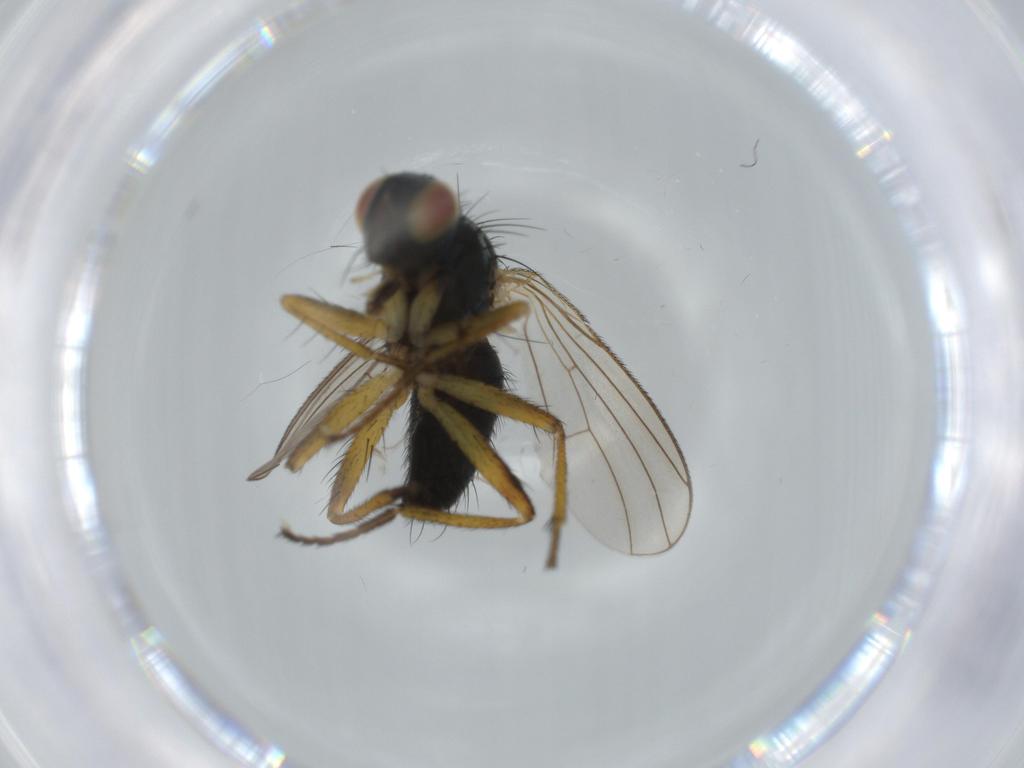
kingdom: Animalia
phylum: Arthropoda
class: Insecta
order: Diptera
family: Muscidae
